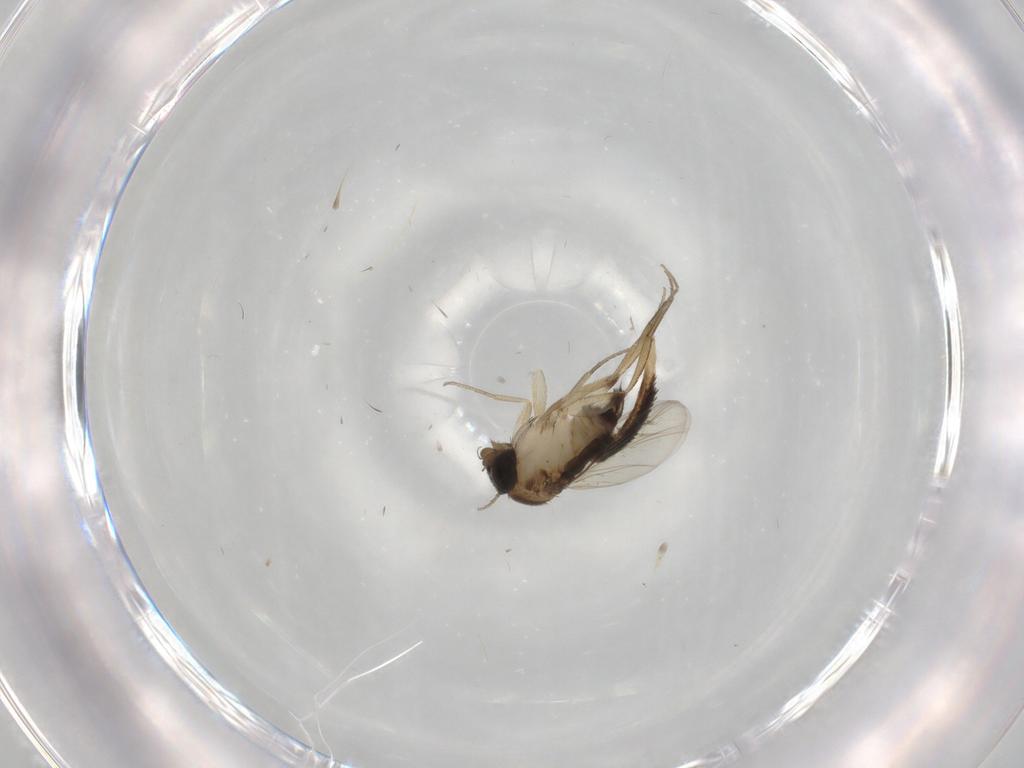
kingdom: Animalia
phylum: Arthropoda
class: Insecta
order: Diptera
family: Phoridae
